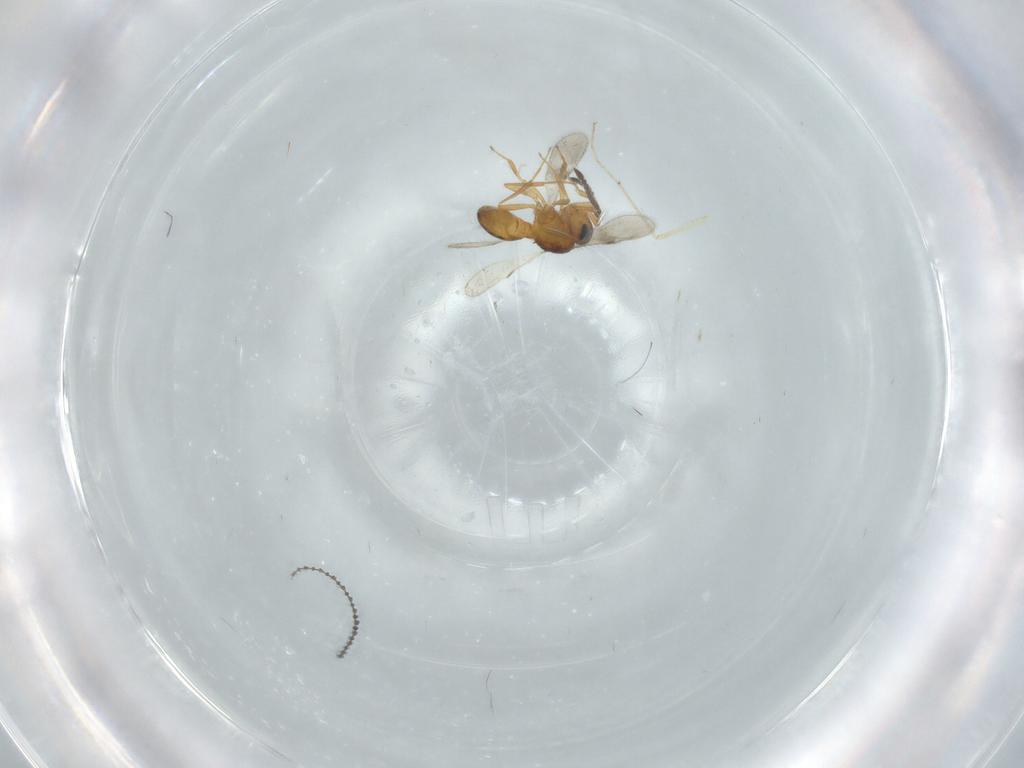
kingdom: Animalia
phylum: Arthropoda
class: Insecta
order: Hymenoptera
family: Scelionidae
